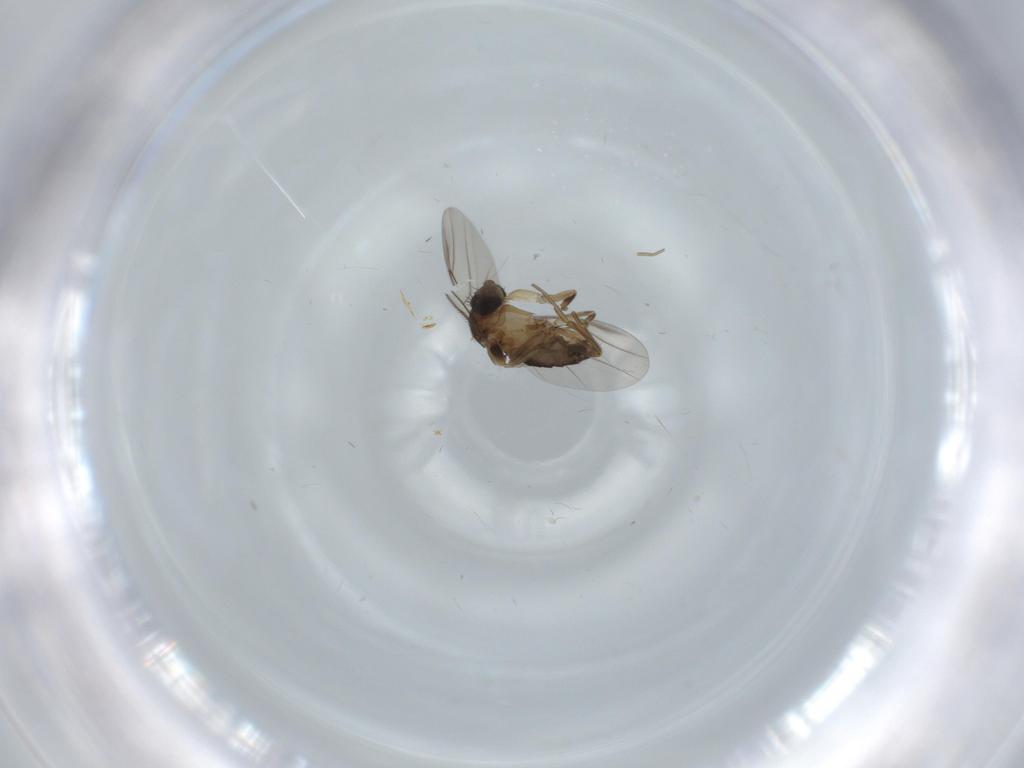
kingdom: Animalia
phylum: Arthropoda
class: Insecta
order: Diptera
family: Phoridae
